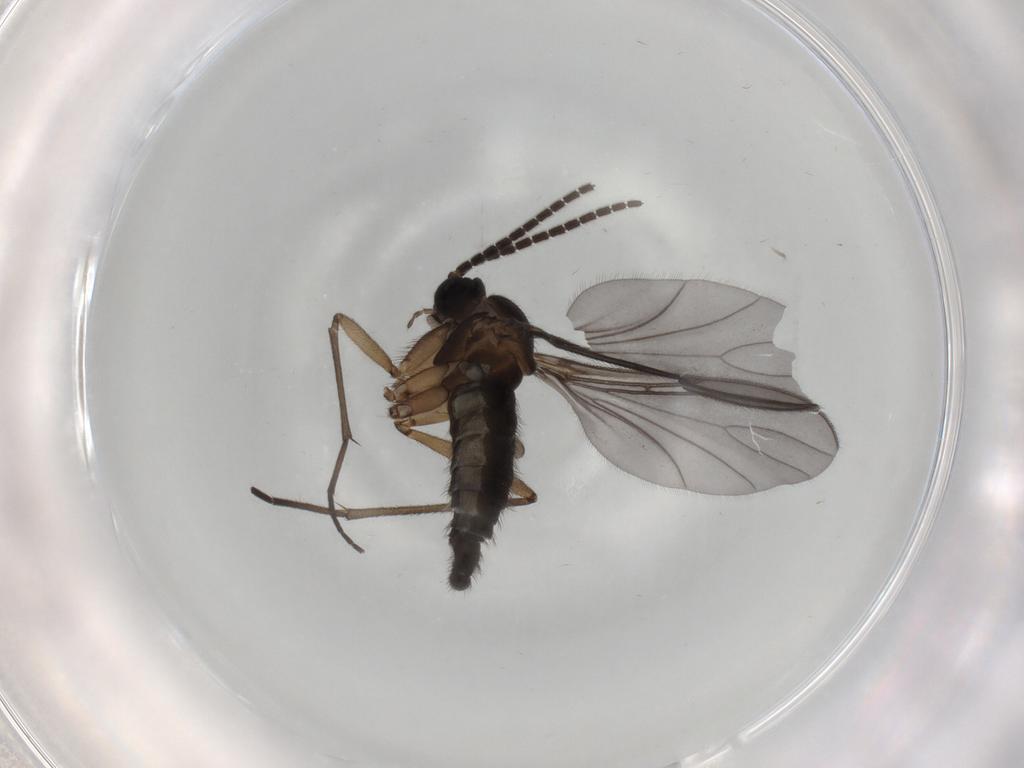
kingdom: Animalia
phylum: Arthropoda
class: Insecta
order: Diptera
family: Sciaridae
